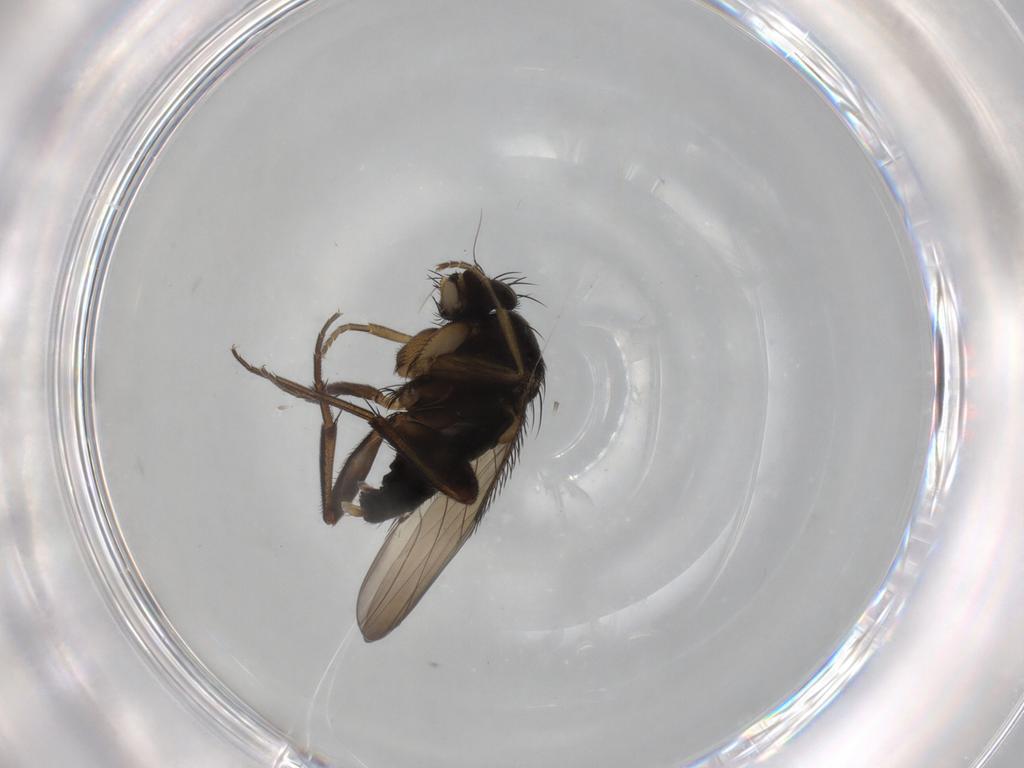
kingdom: Animalia
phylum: Arthropoda
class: Insecta
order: Diptera
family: Phoridae
